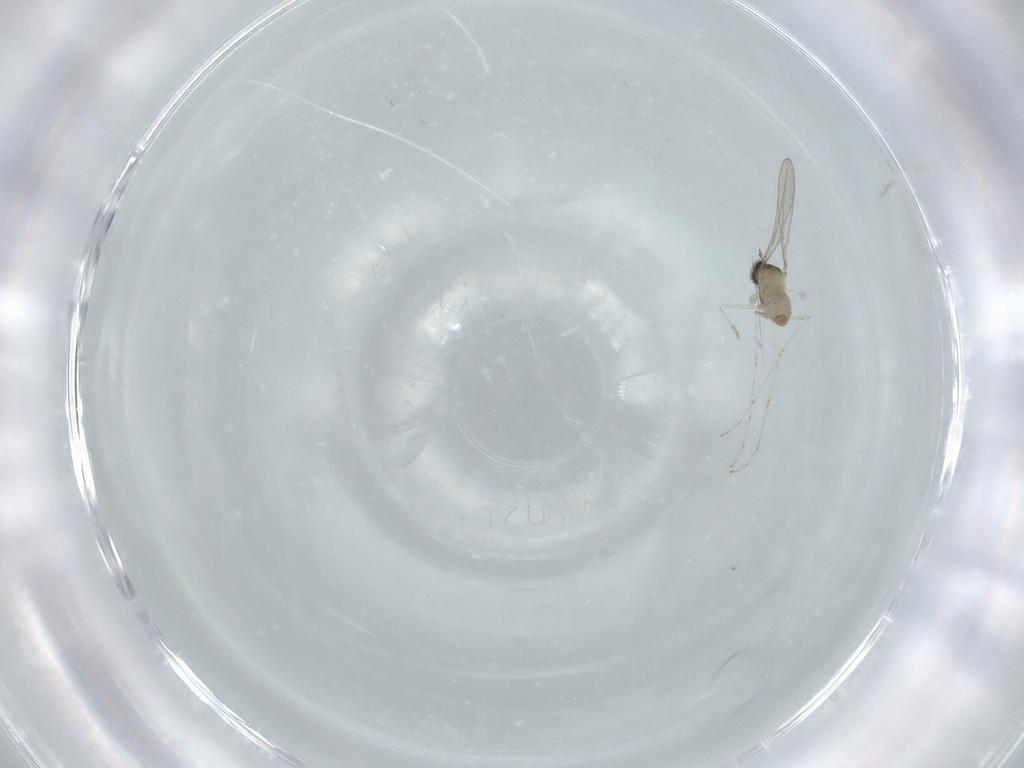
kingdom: Animalia
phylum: Arthropoda
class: Insecta
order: Diptera
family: Cecidomyiidae
